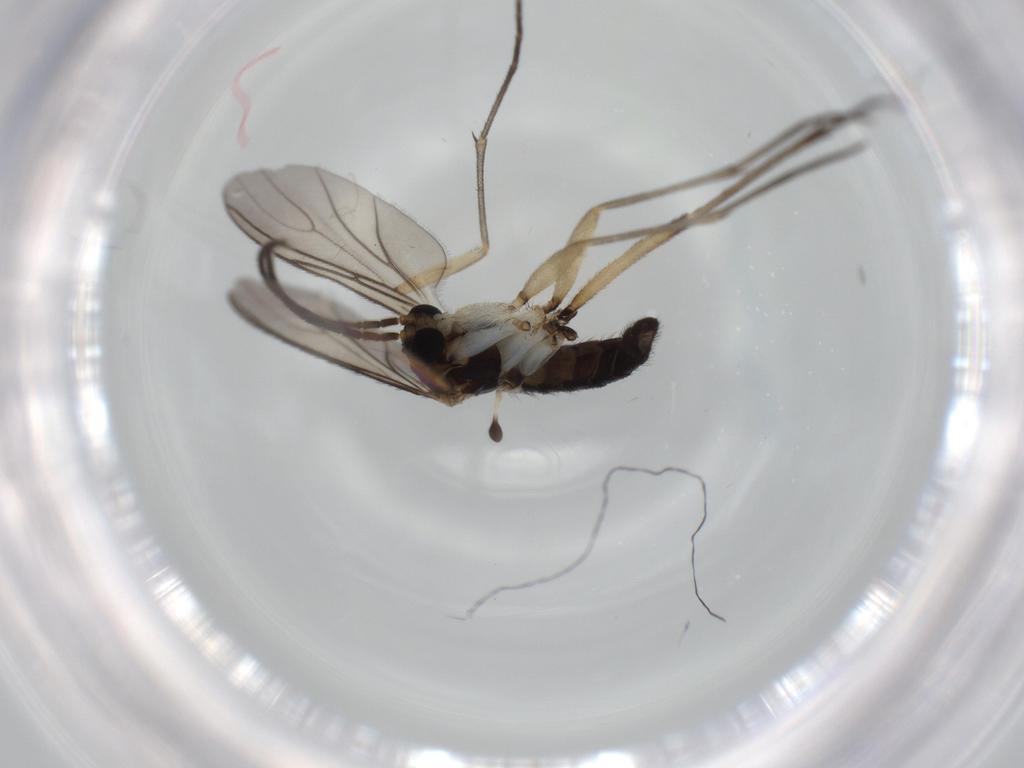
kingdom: Animalia
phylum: Arthropoda
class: Insecta
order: Diptera
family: Sciaridae
